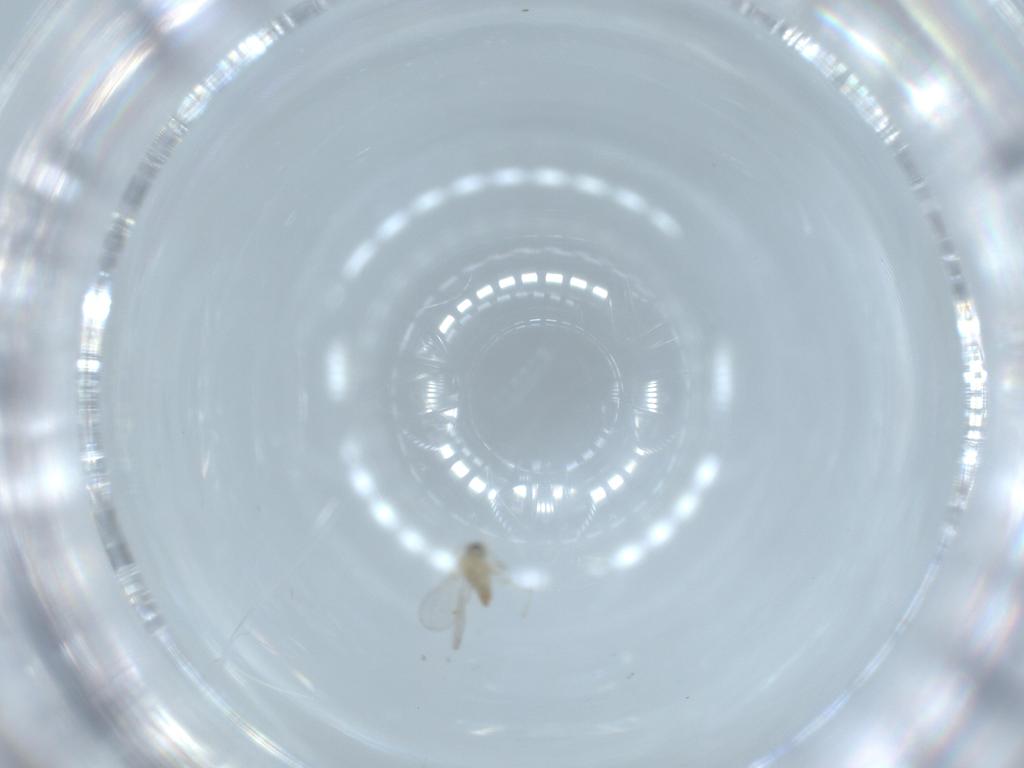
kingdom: Animalia
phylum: Arthropoda
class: Insecta
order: Diptera
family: Cecidomyiidae
